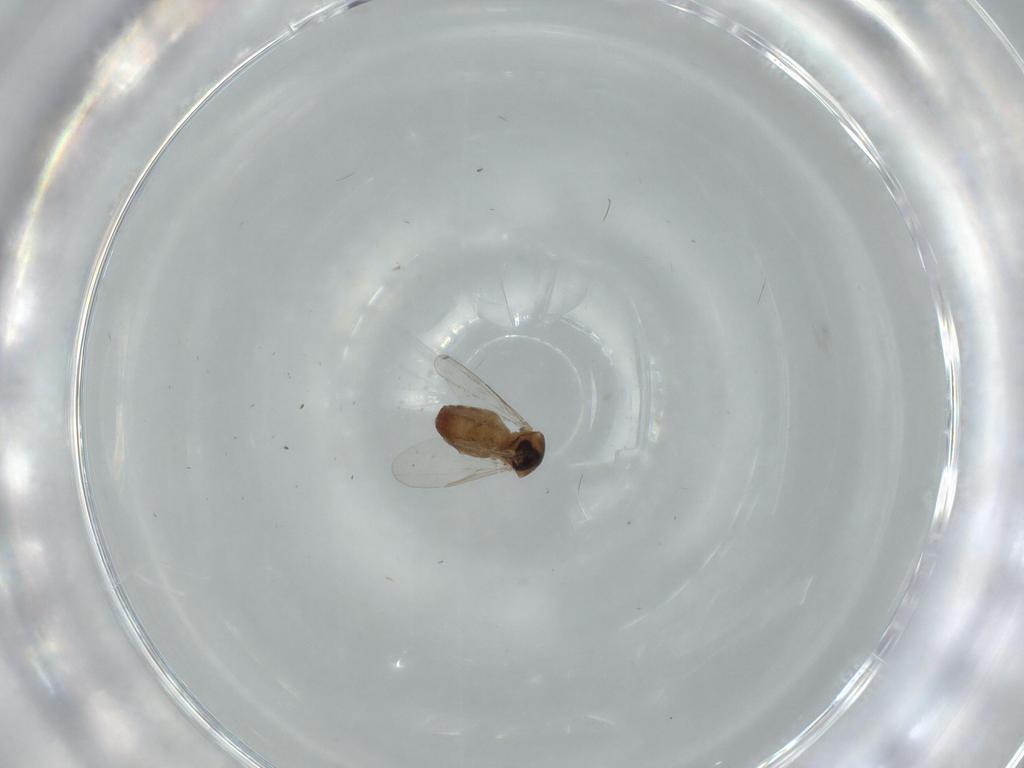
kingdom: Animalia
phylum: Arthropoda
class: Insecta
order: Diptera
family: Ceratopogonidae
